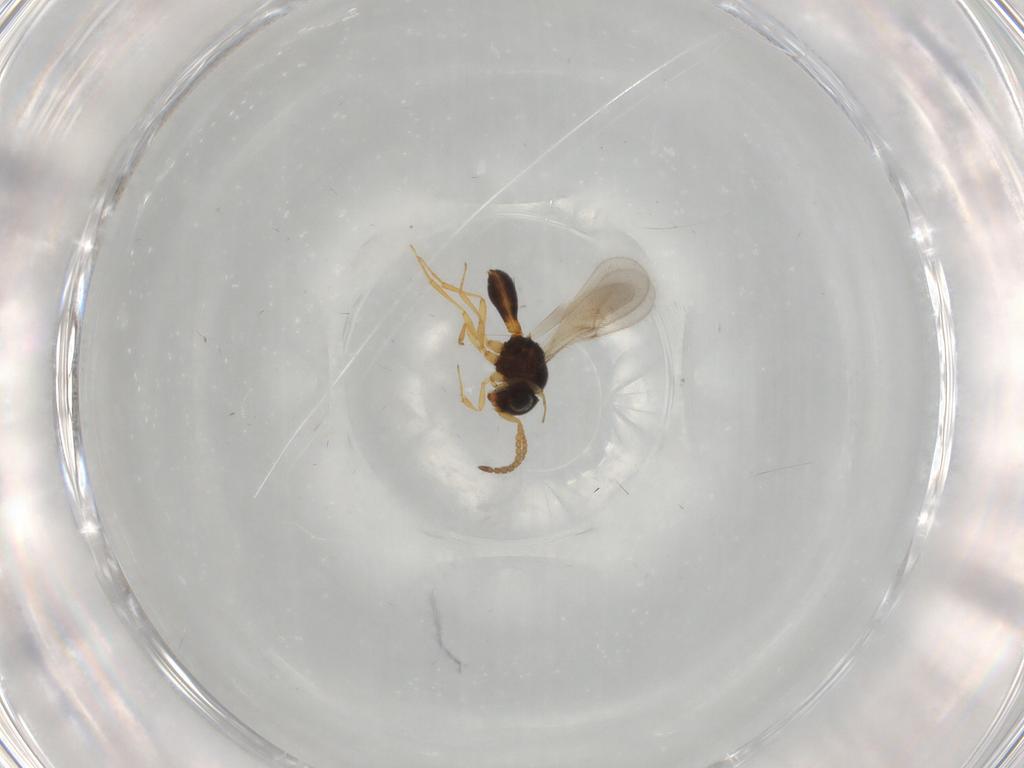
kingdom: Animalia
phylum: Arthropoda
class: Insecta
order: Hymenoptera
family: Scelionidae
